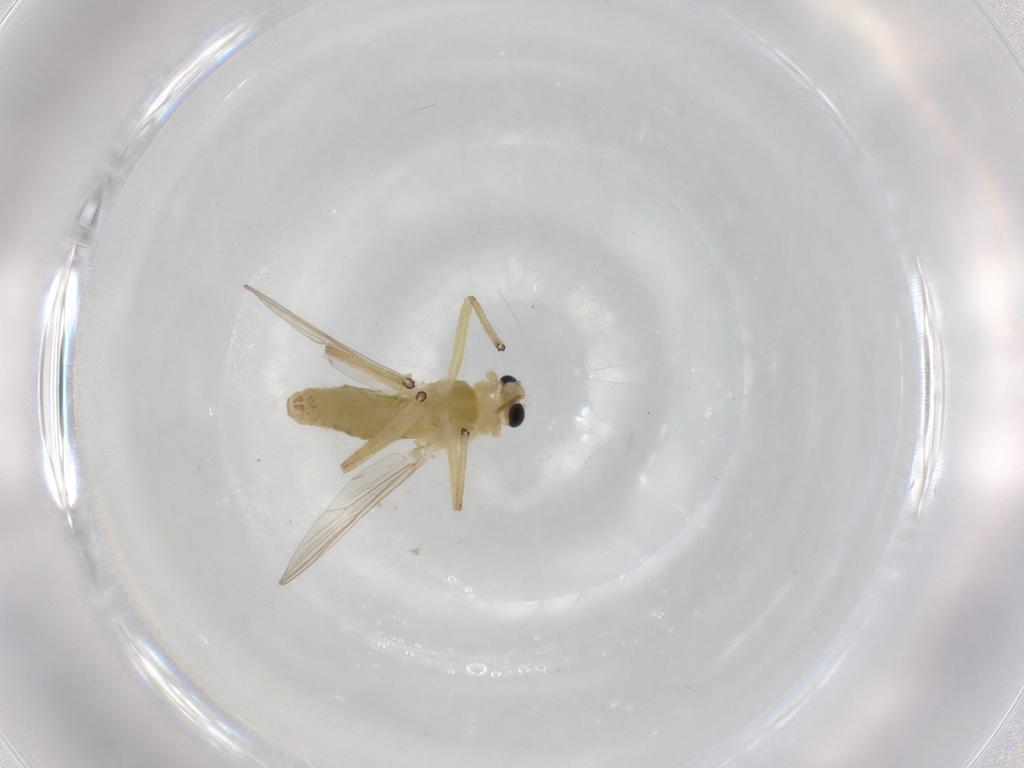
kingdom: Animalia
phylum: Arthropoda
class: Insecta
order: Diptera
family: Chironomidae
